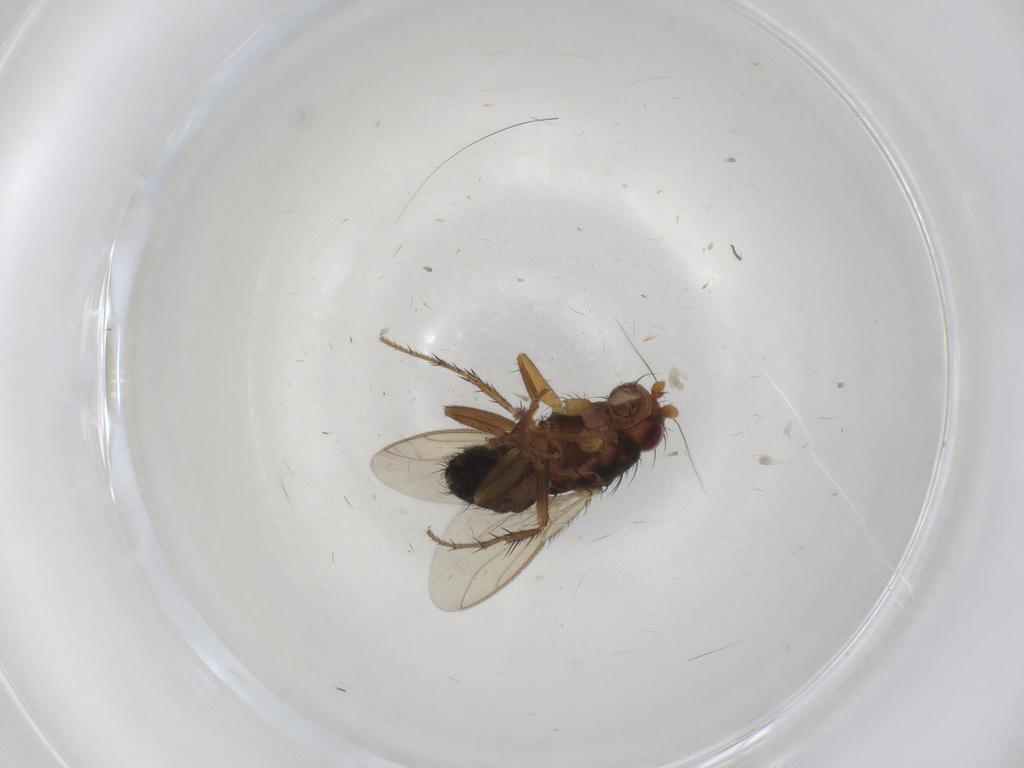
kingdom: Animalia
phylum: Arthropoda
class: Insecta
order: Diptera
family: Sphaeroceridae
